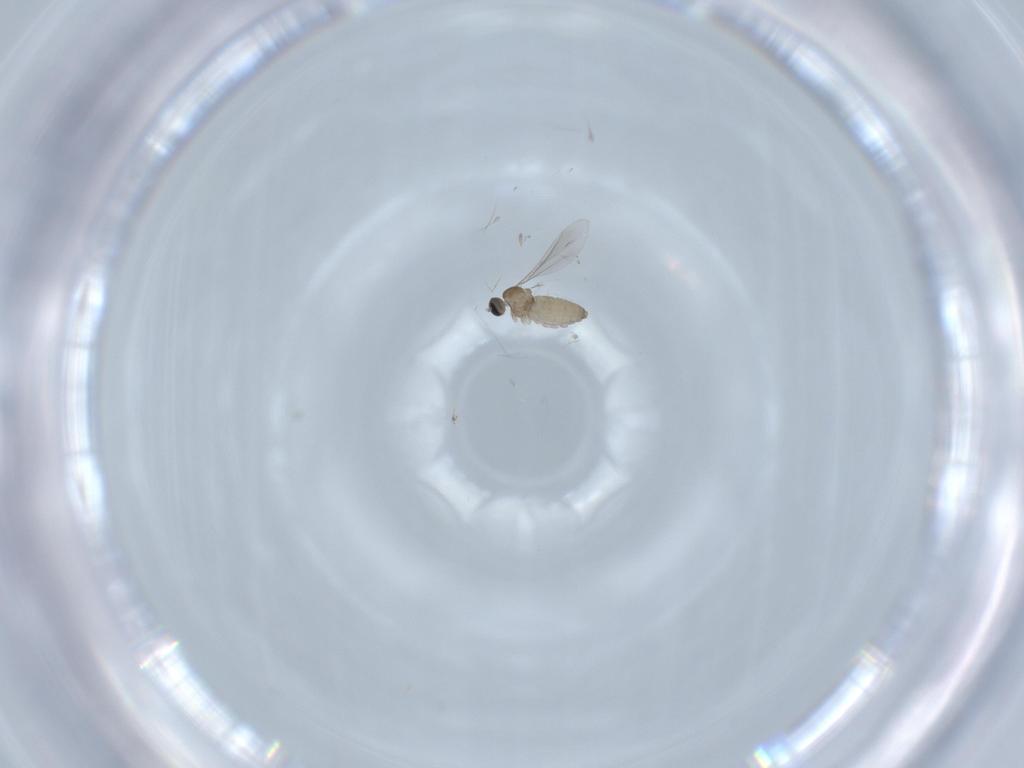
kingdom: Animalia
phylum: Arthropoda
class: Insecta
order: Diptera
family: Cecidomyiidae
